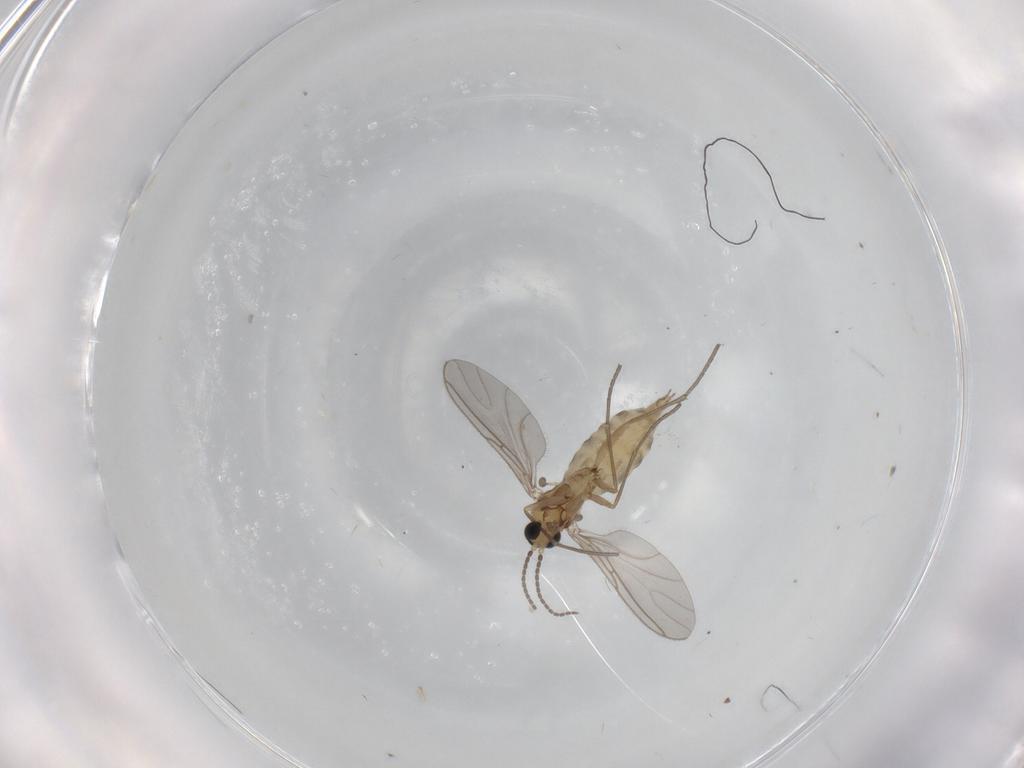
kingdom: Animalia
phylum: Arthropoda
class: Insecta
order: Diptera
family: Sciaridae
